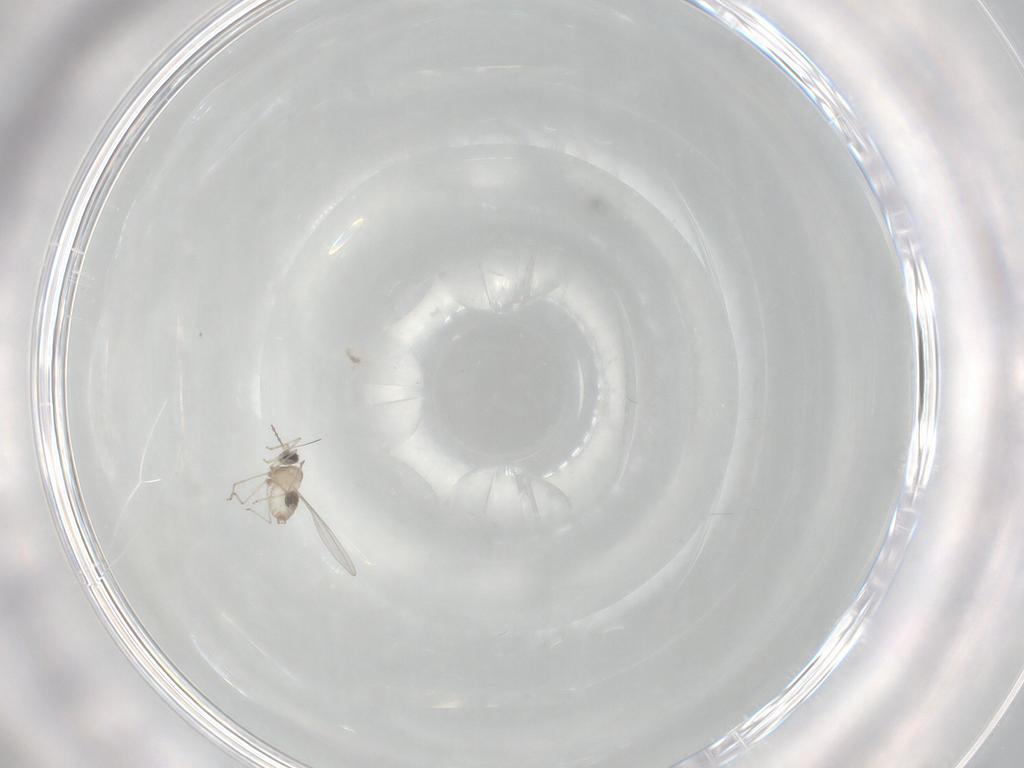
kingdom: Animalia
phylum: Arthropoda
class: Insecta
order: Diptera
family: Cecidomyiidae
